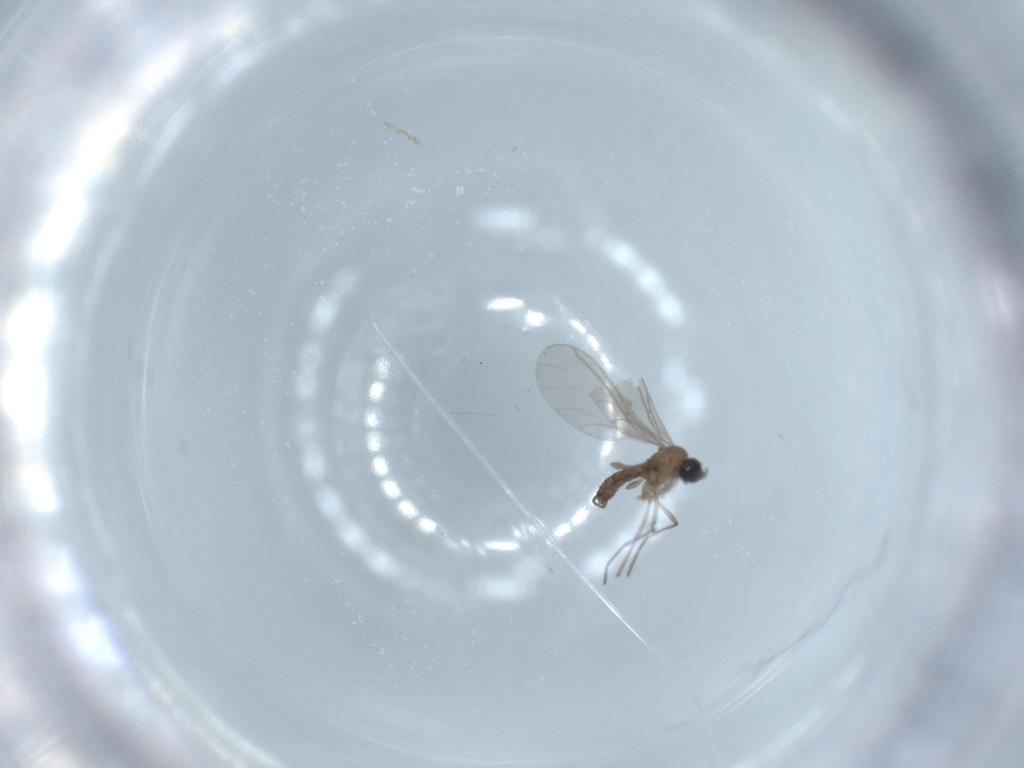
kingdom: Animalia
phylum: Arthropoda
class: Insecta
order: Diptera
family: Sciaridae
